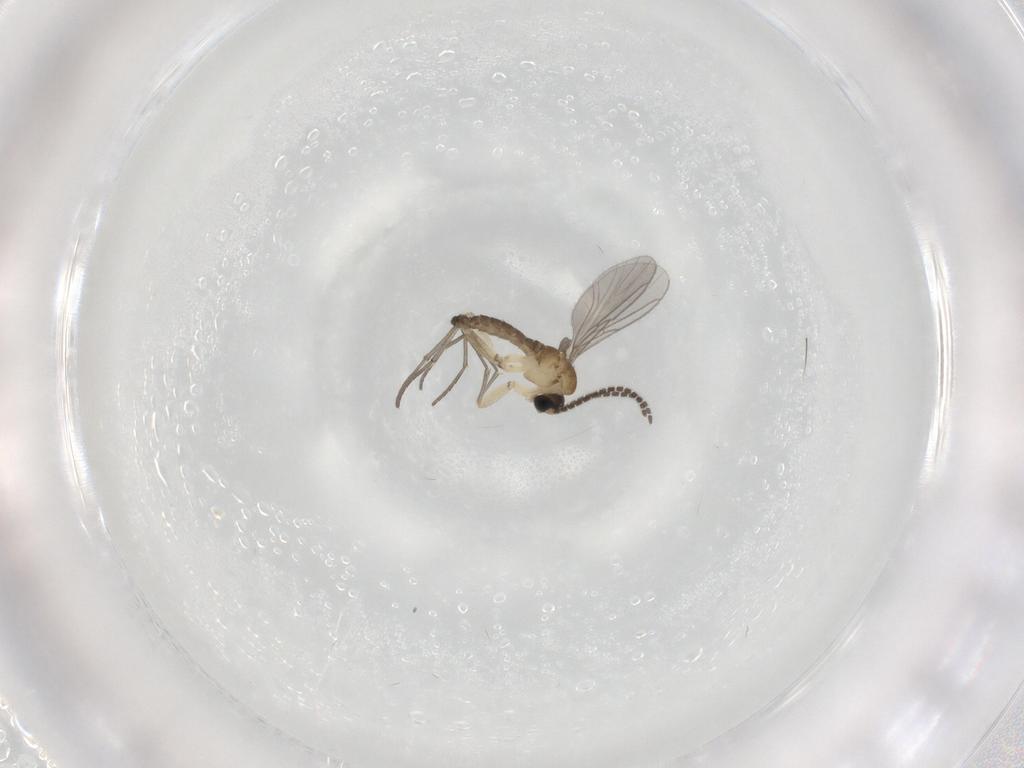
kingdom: Animalia
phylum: Arthropoda
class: Insecta
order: Diptera
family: Sciaridae
